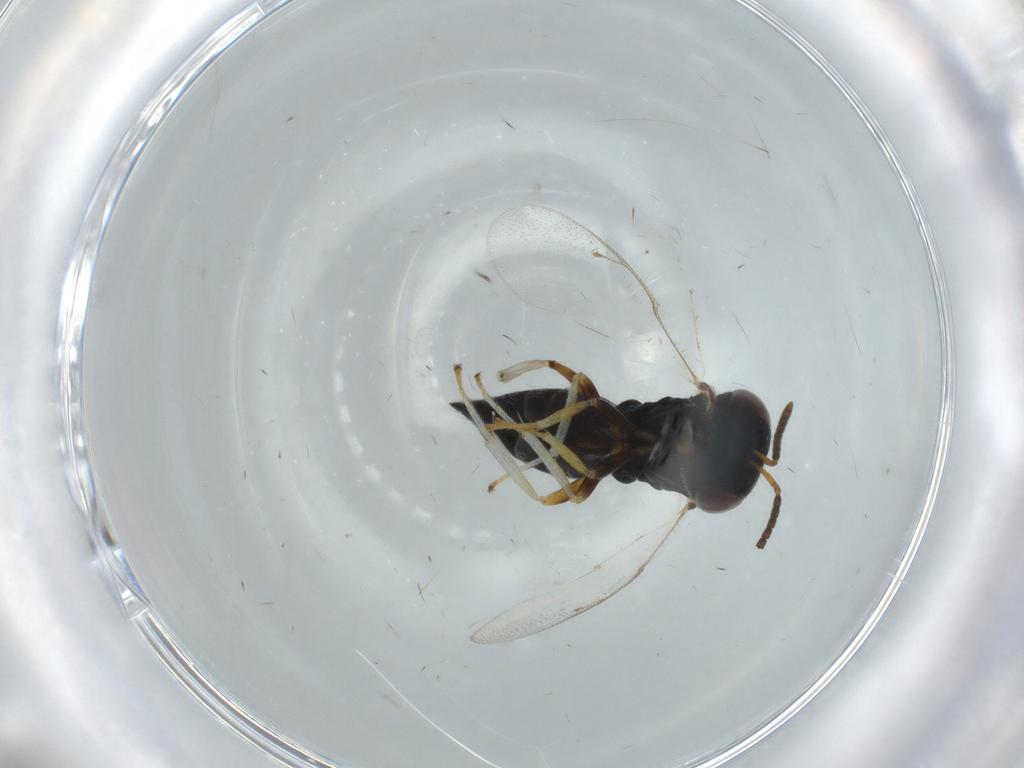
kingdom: Animalia
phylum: Arthropoda
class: Insecta
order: Hymenoptera
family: Pteromalidae
